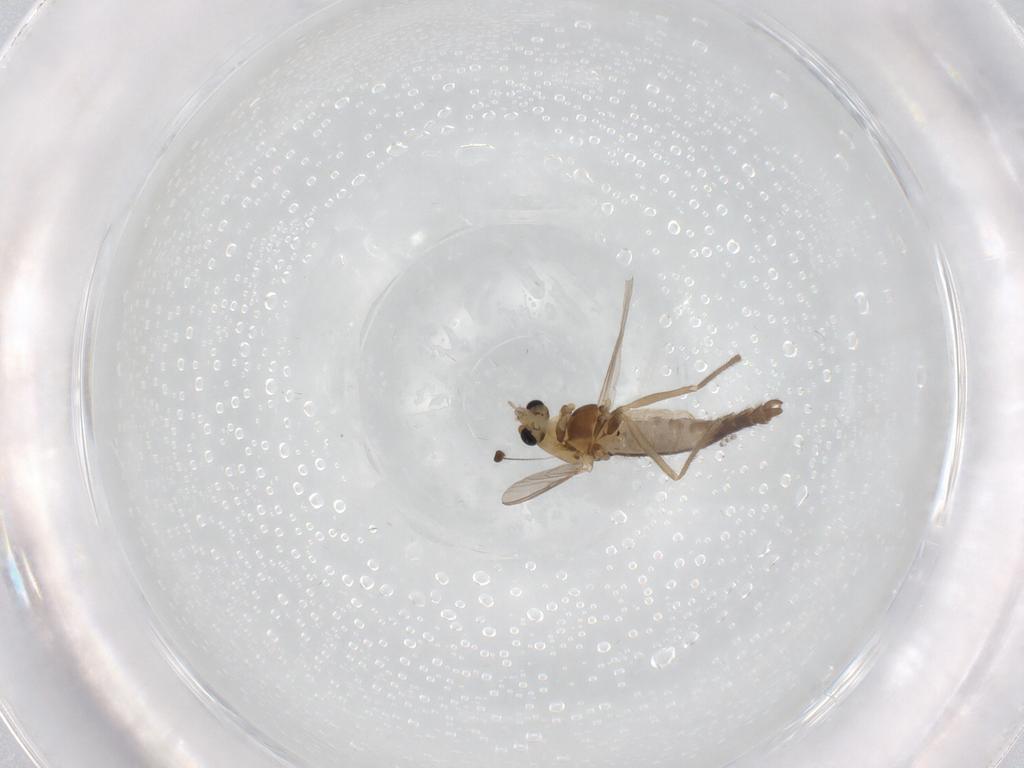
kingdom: Animalia
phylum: Arthropoda
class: Insecta
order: Diptera
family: Chironomidae
